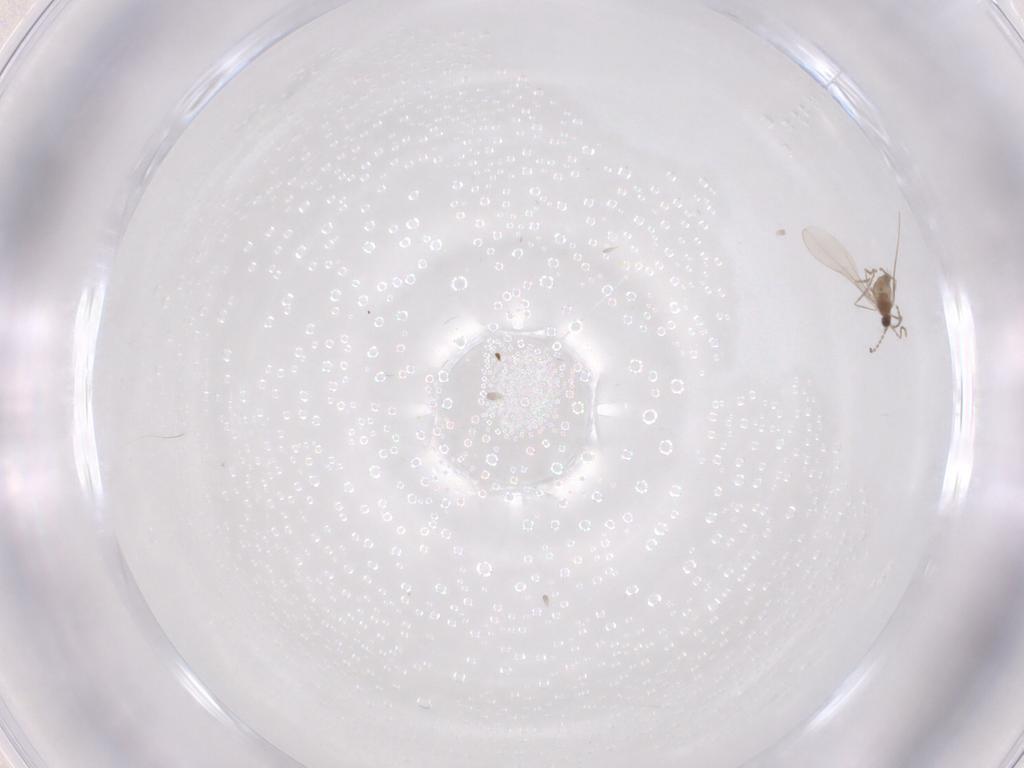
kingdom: Animalia
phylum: Arthropoda
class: Insecta
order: Diptera
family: Cecidomyiidae
